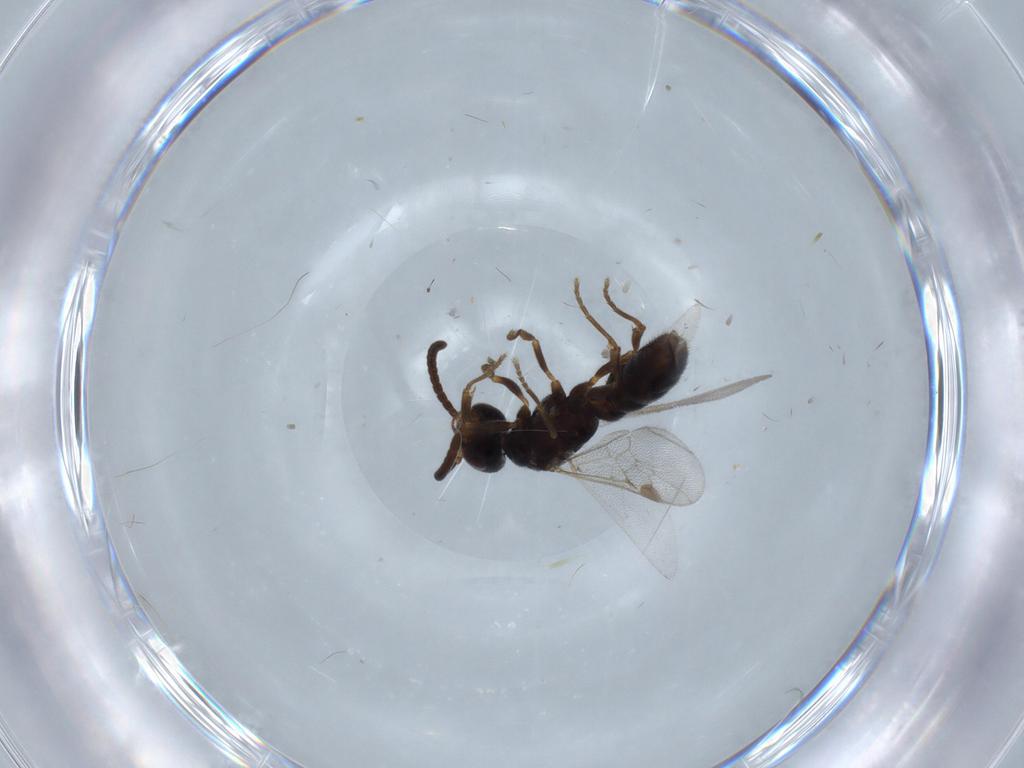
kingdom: Animalia
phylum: Arthropoda
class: Insecta
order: Hymenoptera
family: Formicidae
